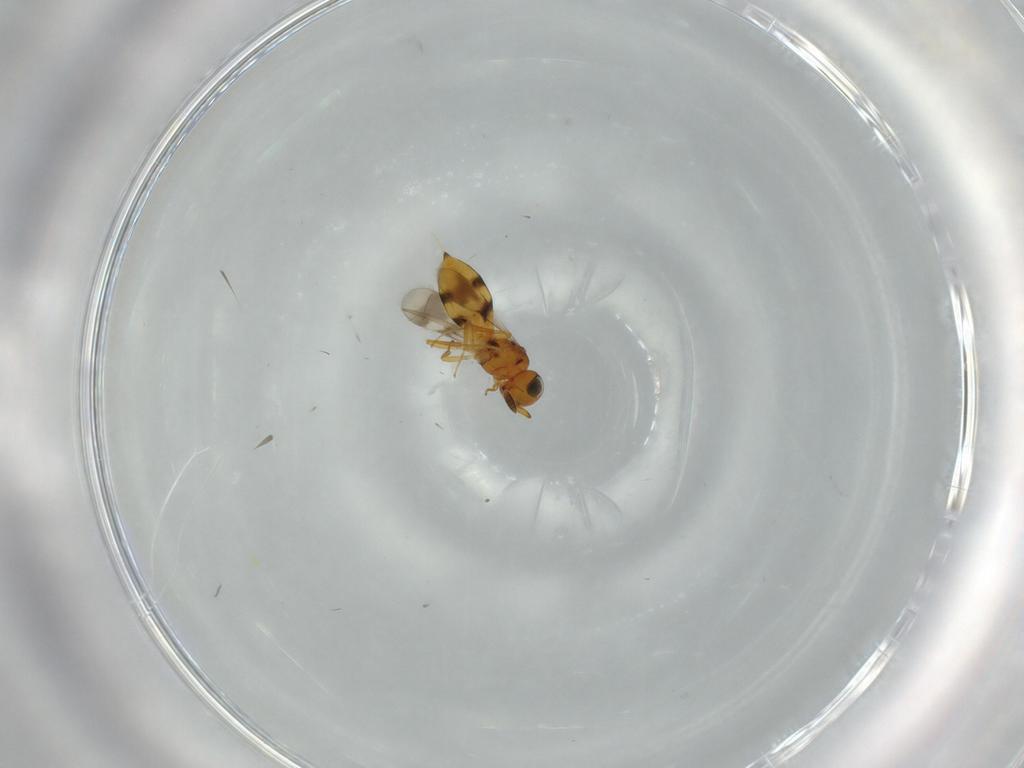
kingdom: Animalia
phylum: Arthropoda
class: Insecta
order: Hymenoptera
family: Scelionidae
